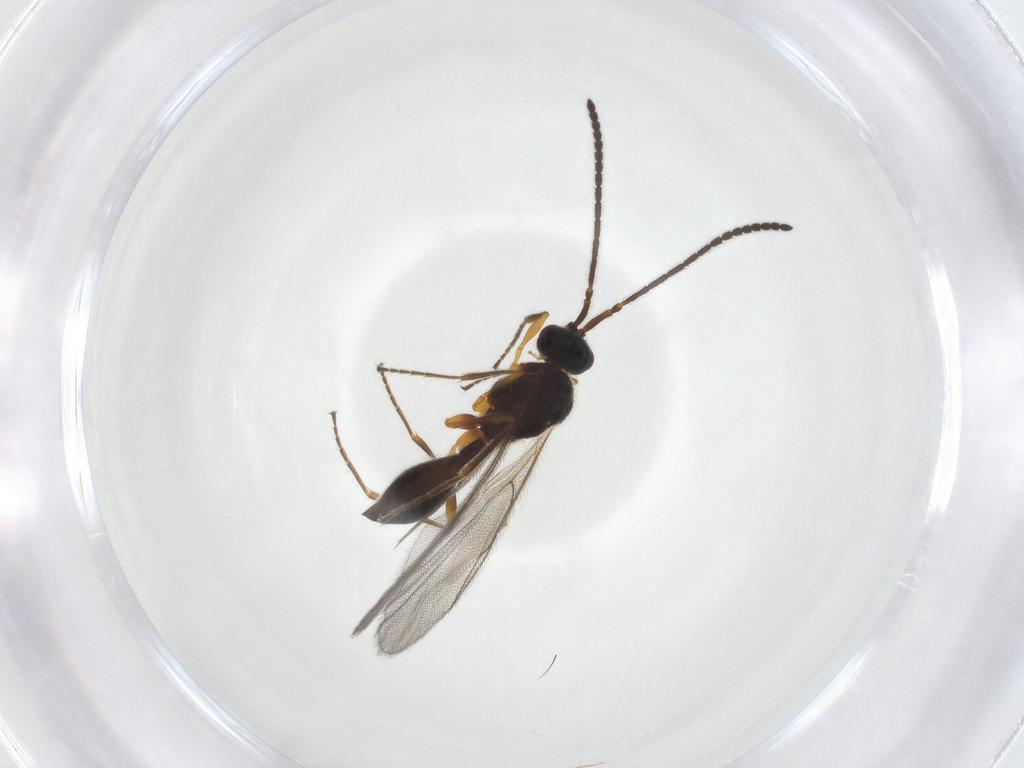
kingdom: Animalia
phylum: Arthropoda
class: Insecta
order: Hymenoptera
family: Diapriidae
